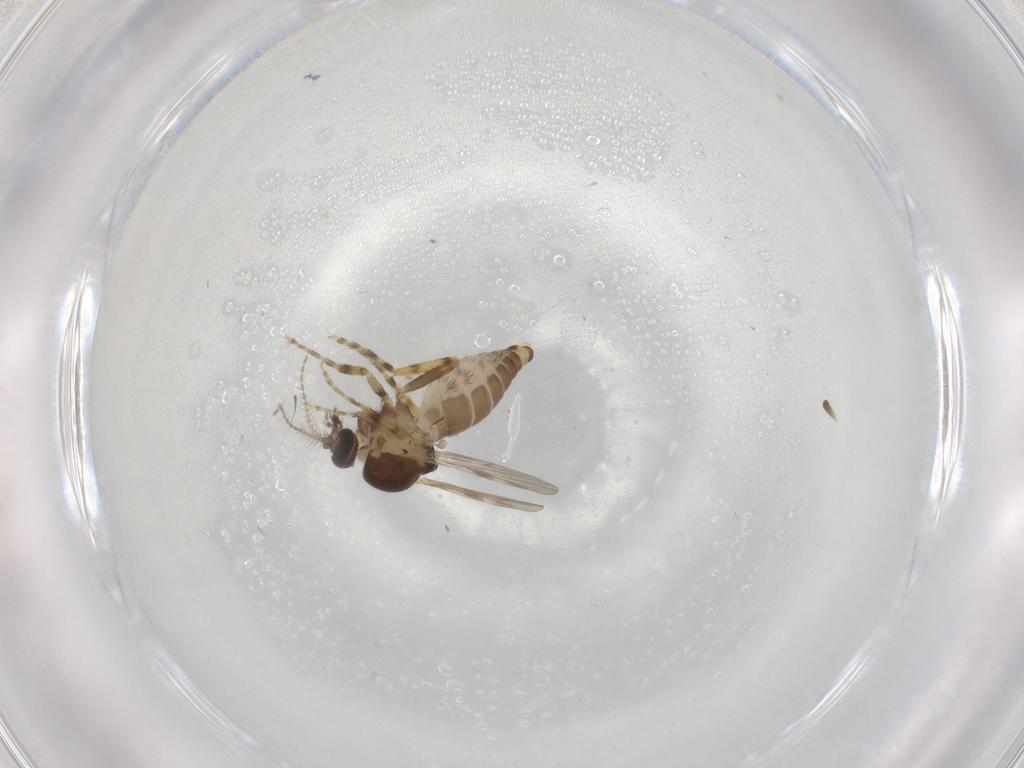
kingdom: Animalia
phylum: Arthropoda
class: Insecta
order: Diptera
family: Ceratopogonidae
